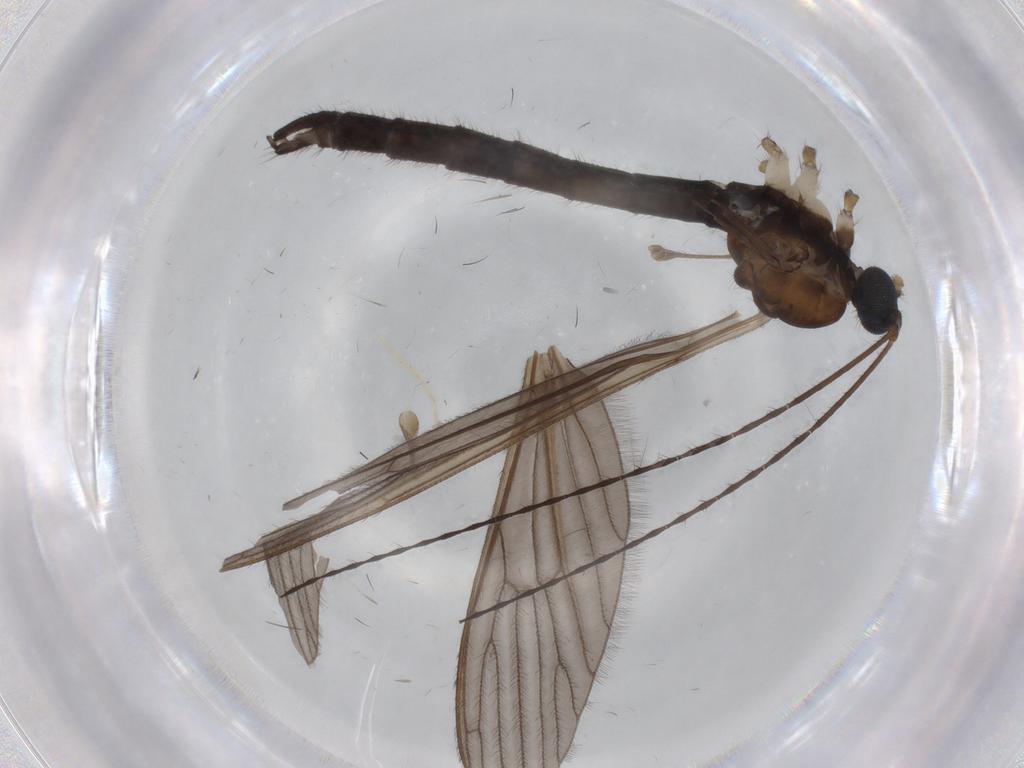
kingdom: Animalia
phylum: Arthropoda
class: Insecta
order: Diptera
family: Limoniidae
